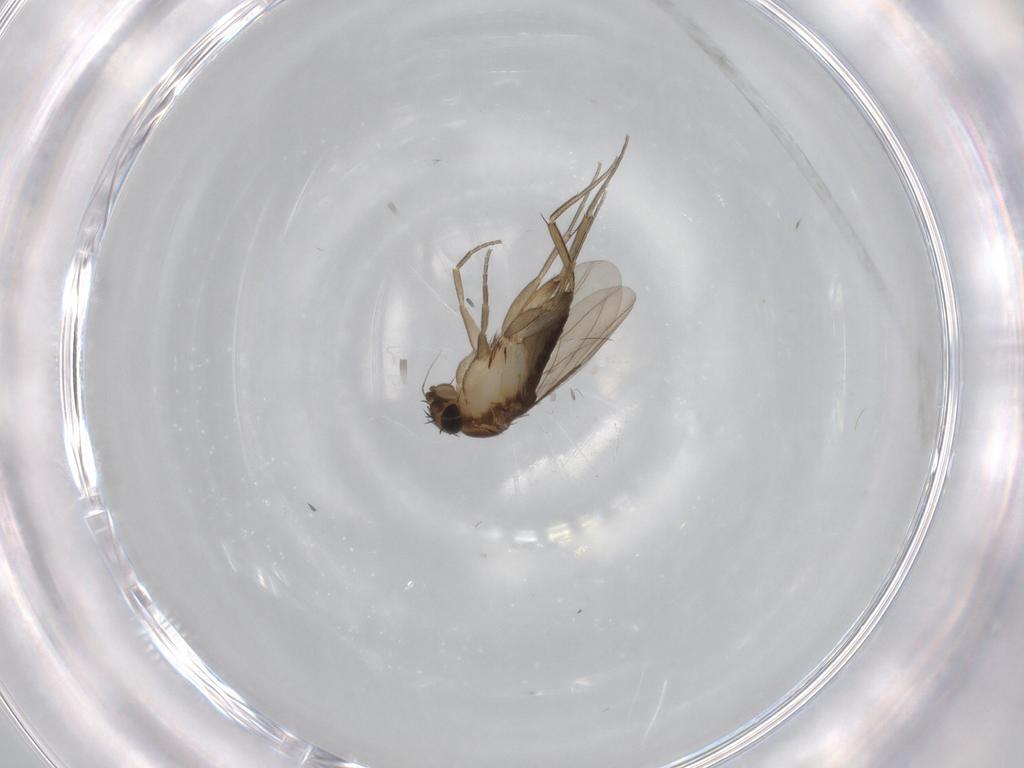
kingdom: Animalia
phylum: Arthropoda
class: Insecta
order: Diptera
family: Phoridae
